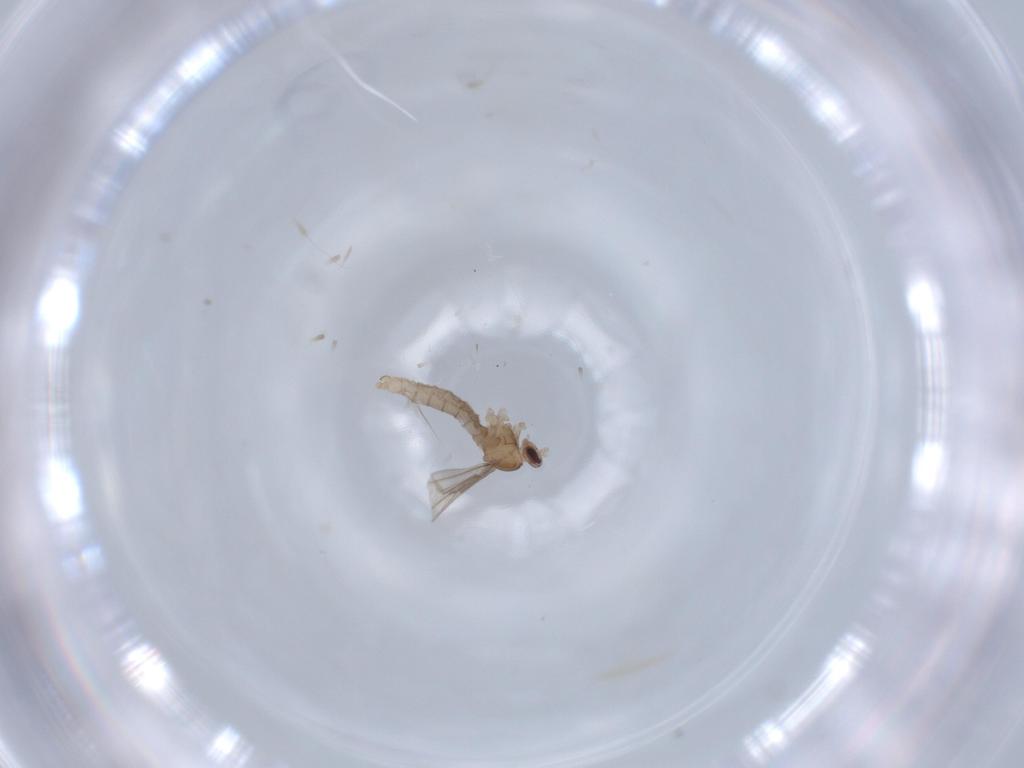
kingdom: Animalia
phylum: Arthropoda
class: Insecta
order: Diptera
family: Cecidomyiidae
